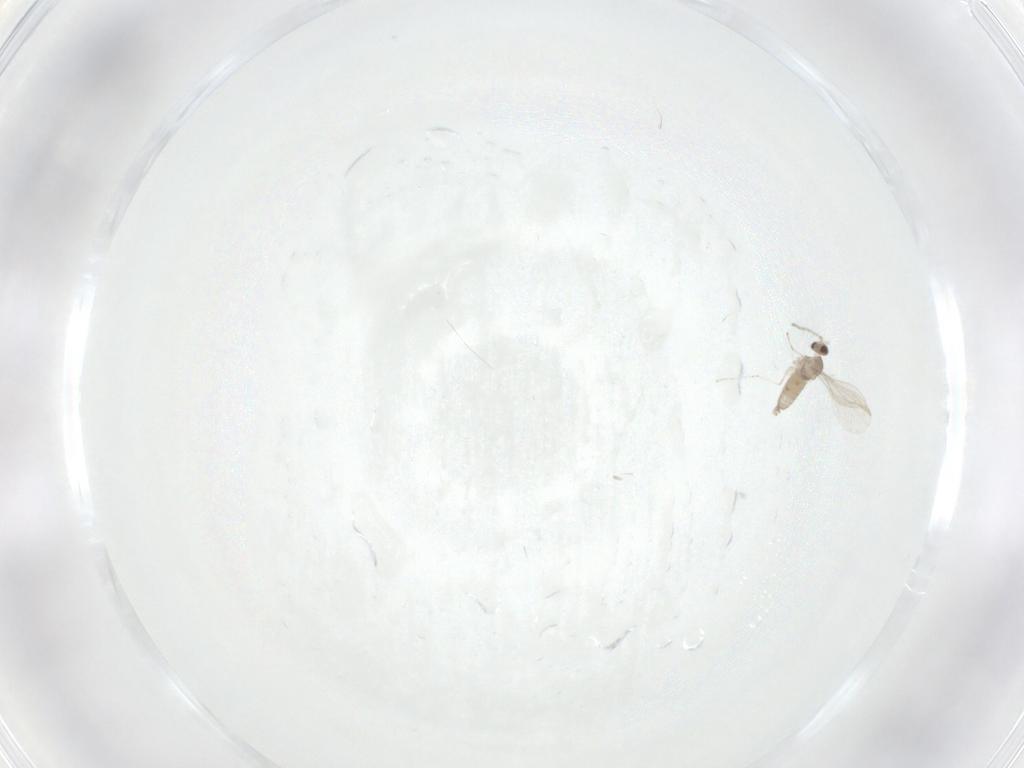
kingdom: Animalia
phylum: Arthropoda
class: Insecta
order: Diptera
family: Cecidomyiidae
